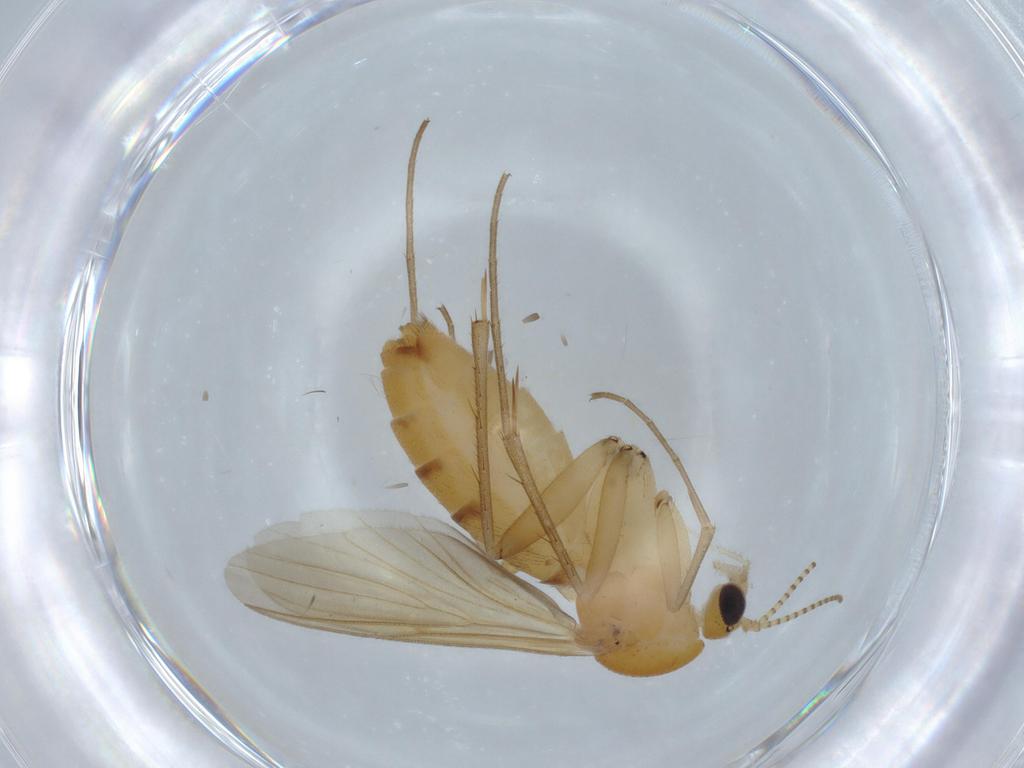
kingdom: Animalia
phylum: Arthropoda
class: Insecta
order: Diptera
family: Mycetophilidae
